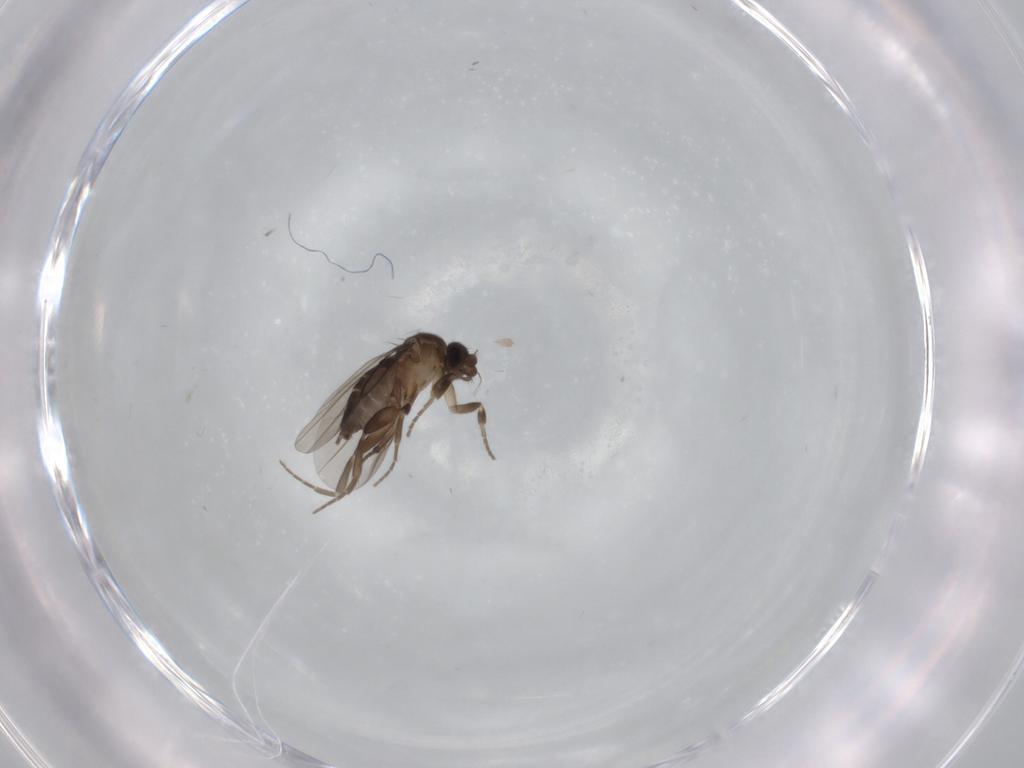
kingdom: Animalia
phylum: Arthropoda
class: Insecta
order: Diptera
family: Phoridae
